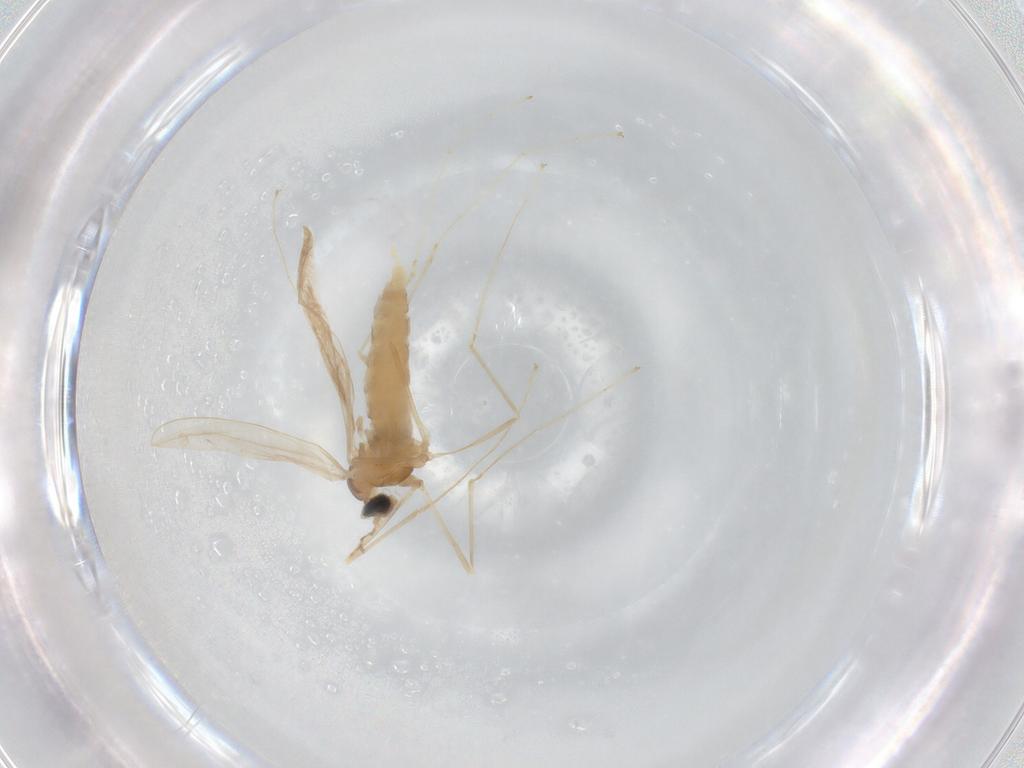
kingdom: Animalia
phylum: Arthropoda
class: Insecta
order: Diptera
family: Cecidomyiidae
